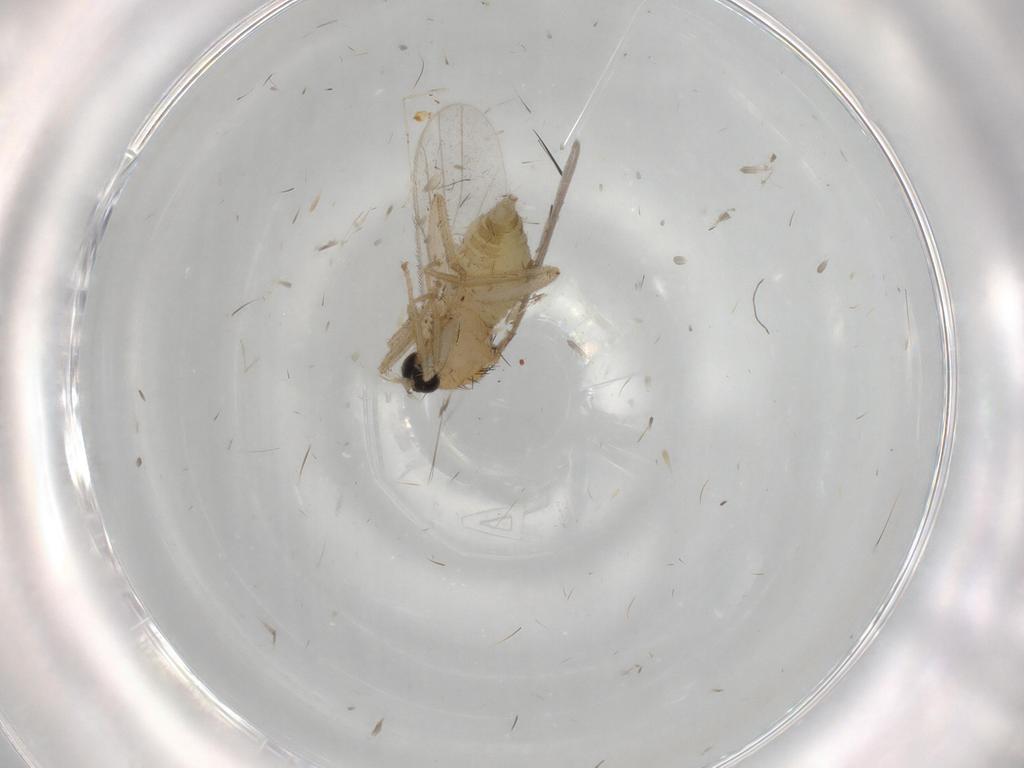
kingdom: Animalia
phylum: Arthropoda
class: Insecta
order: Diptera
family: Hybotidae
